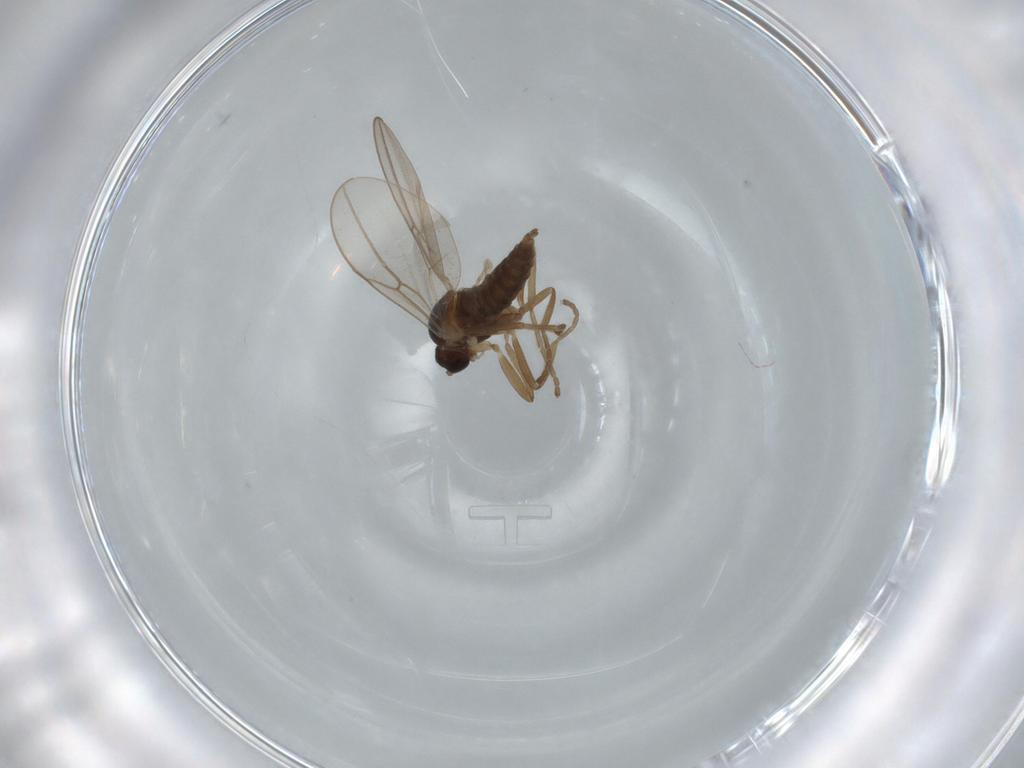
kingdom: Animalia
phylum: Arthropoda
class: Insecta
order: Diptera
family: Cecidomyiidae
